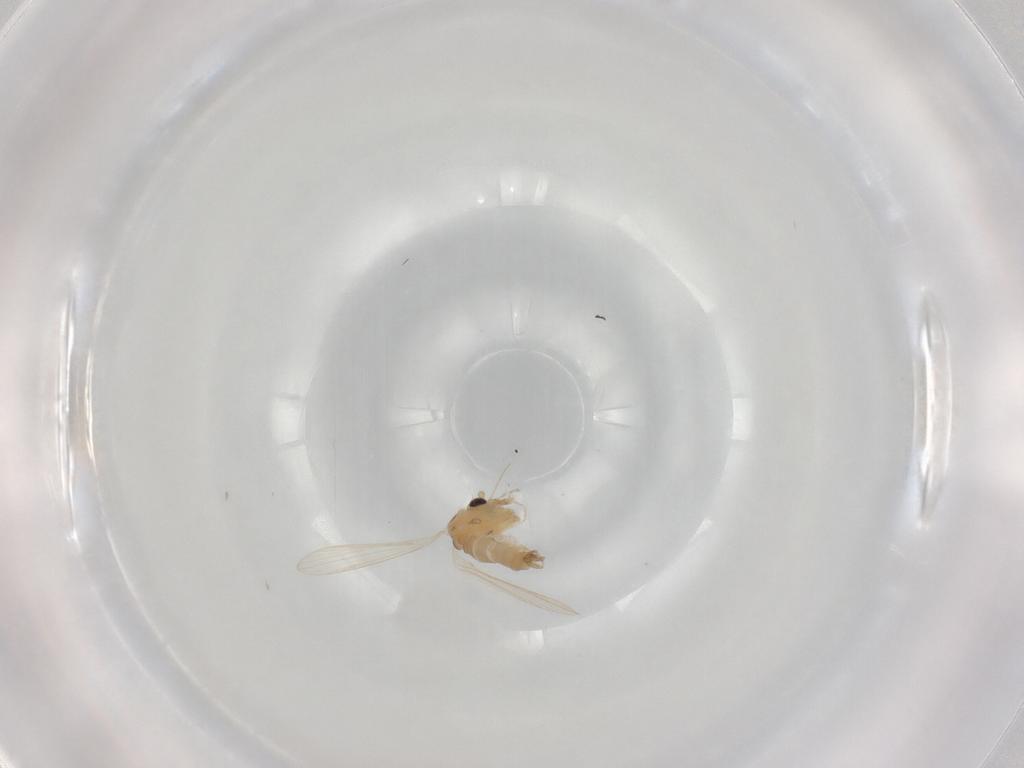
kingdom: Animalia
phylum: Arthropoda
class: Insecta
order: Diptera
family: Psychodidae
